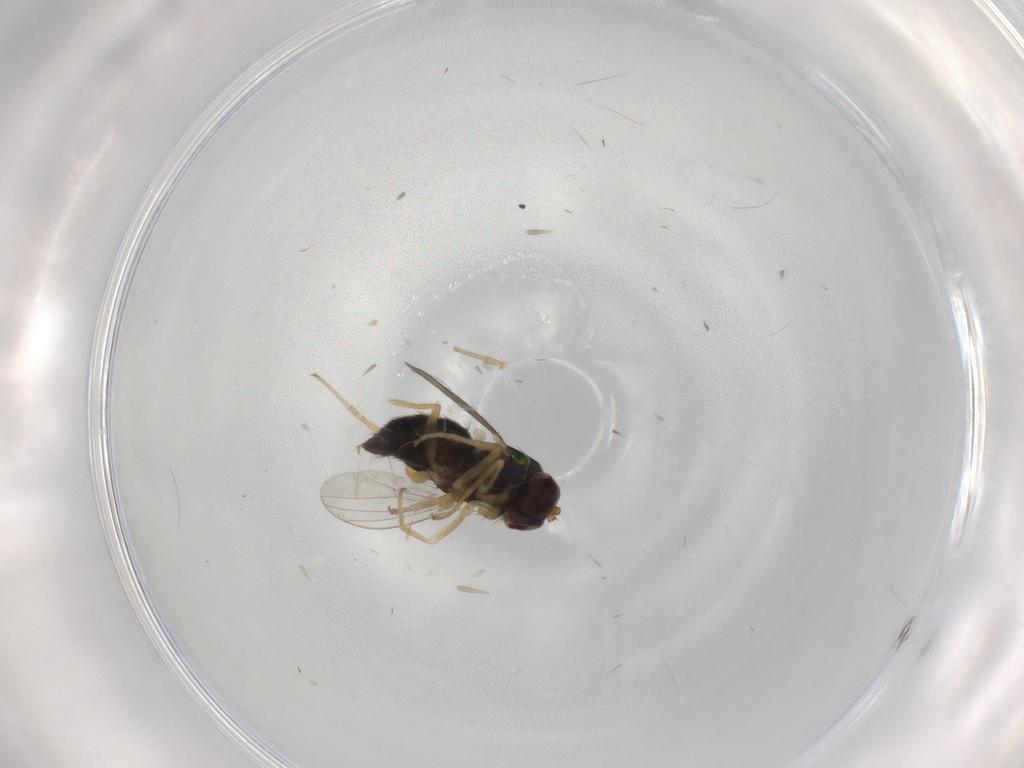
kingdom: Animalia
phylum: Arthropoda
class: Insecta
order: Diptera
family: Dolichopodidae
